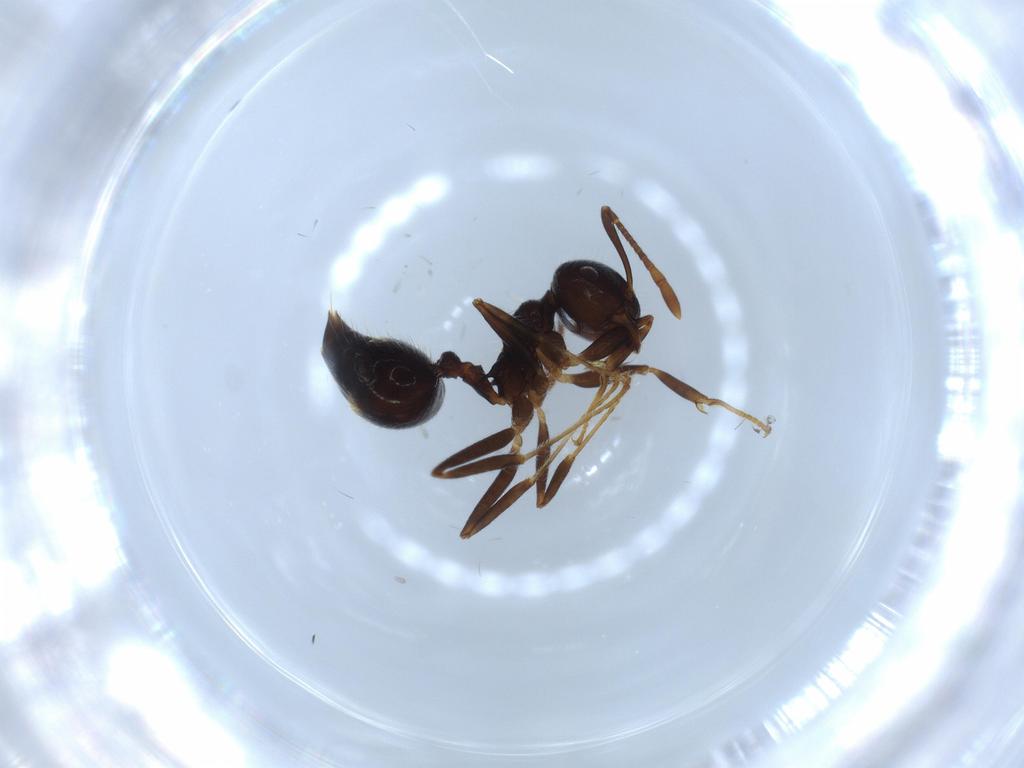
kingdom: Animalia
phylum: Arthropoda
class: Insecta
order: Hymenoptera
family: Formicidae
